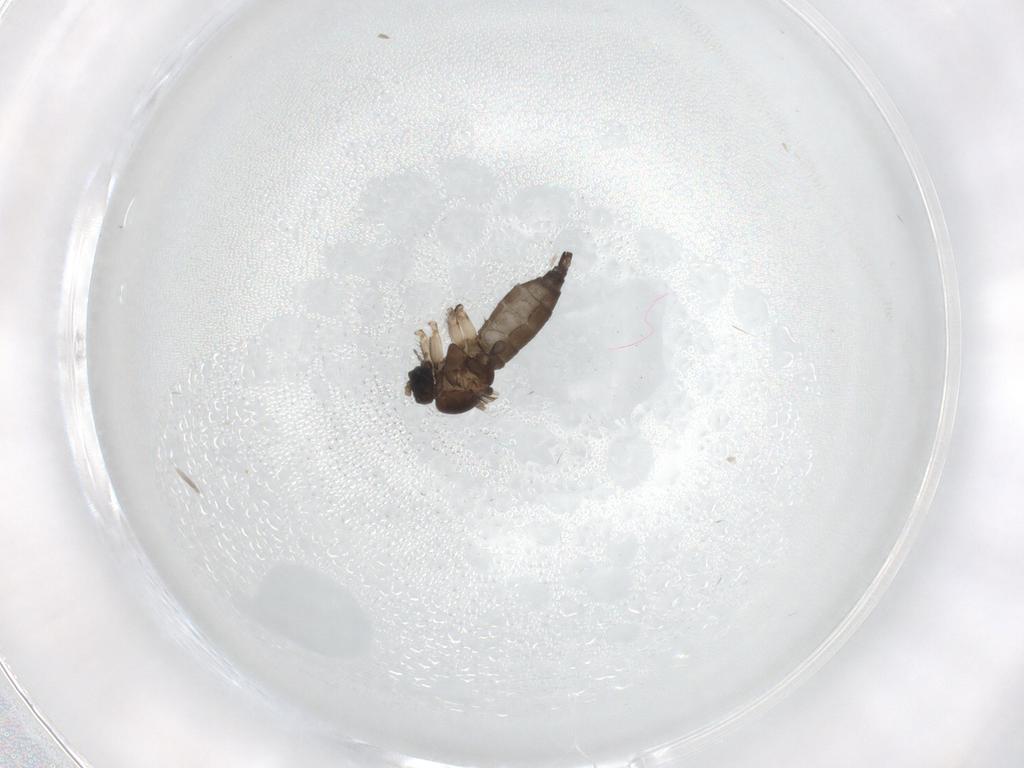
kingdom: Animalia
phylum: Arthropoda
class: Insecta
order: Diptera
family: Sciaridae
